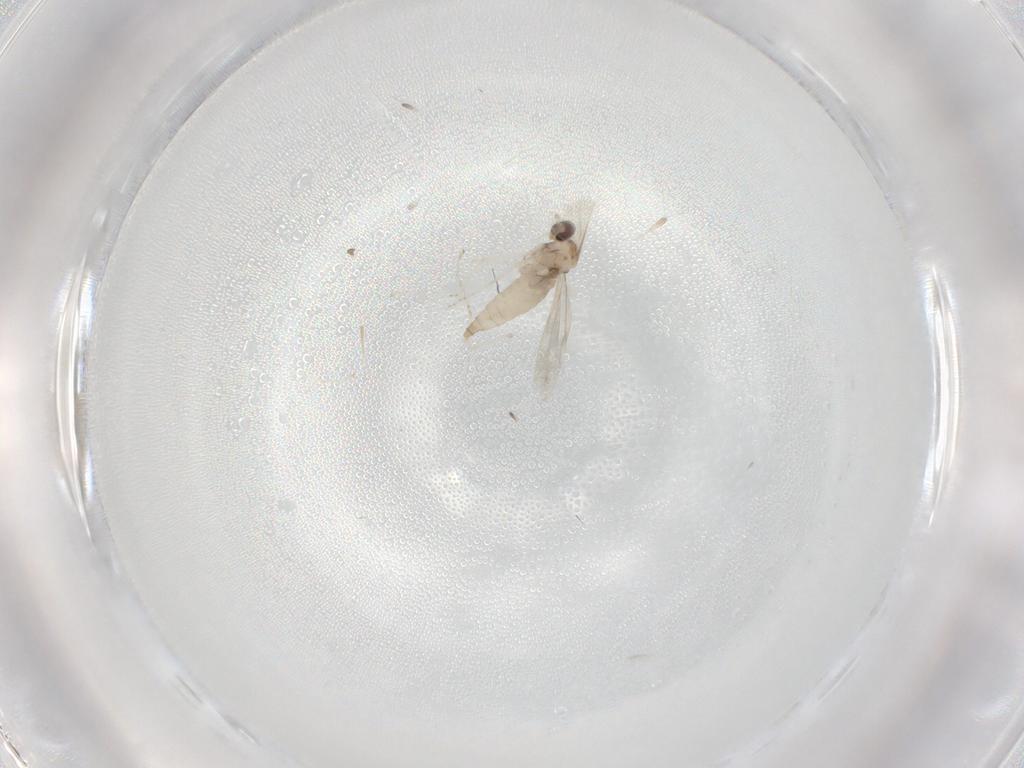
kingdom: Animalia
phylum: Arthropoda
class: Insecta
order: Diptera
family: Cecidomyiidae
